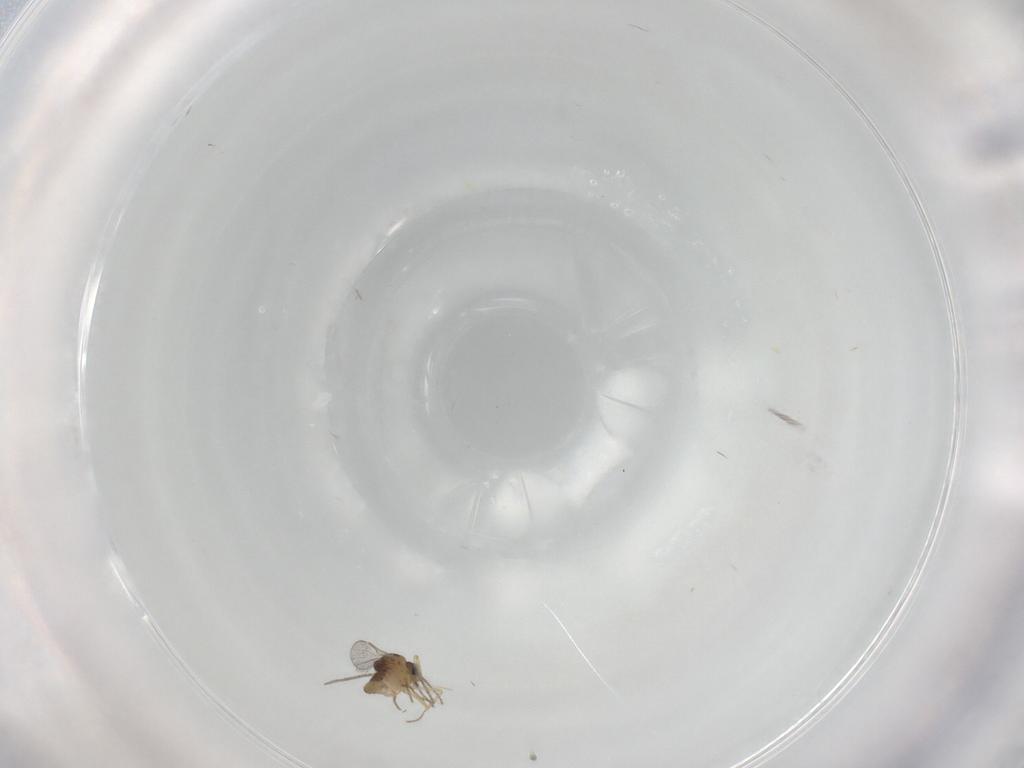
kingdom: Animalia
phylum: Arthropoda
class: Insecta
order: Diptera
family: Ceratopogonidae
